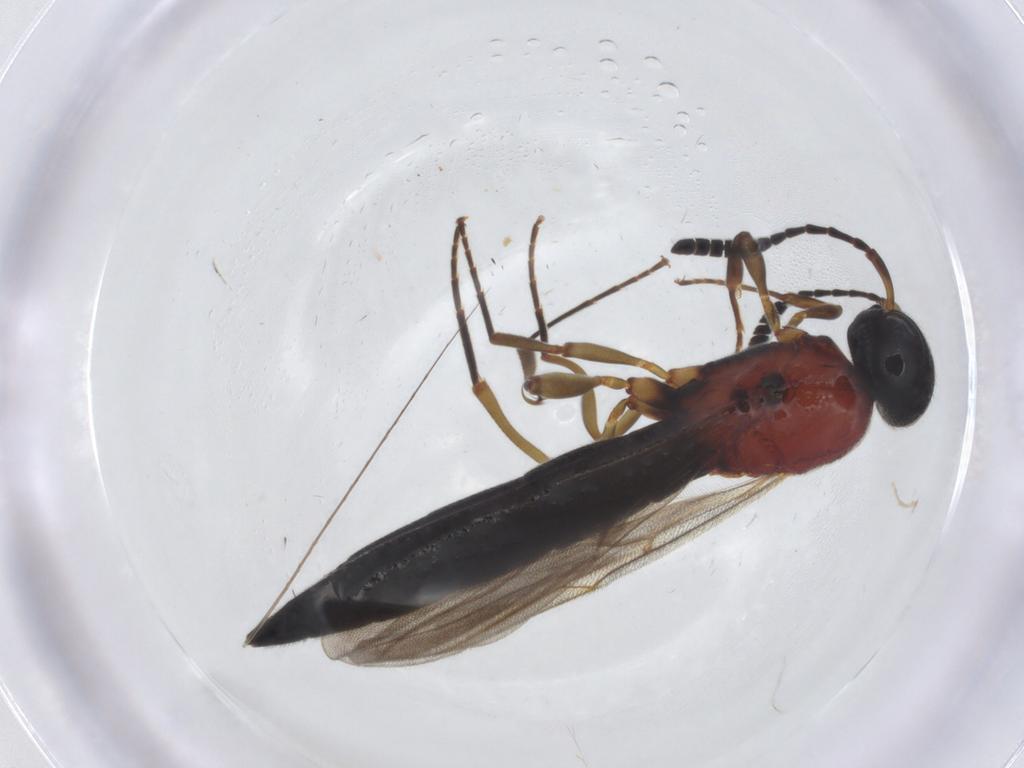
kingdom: Animalia
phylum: Arthropoda
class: Insecta
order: Hymenoptera
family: Scelionidae
